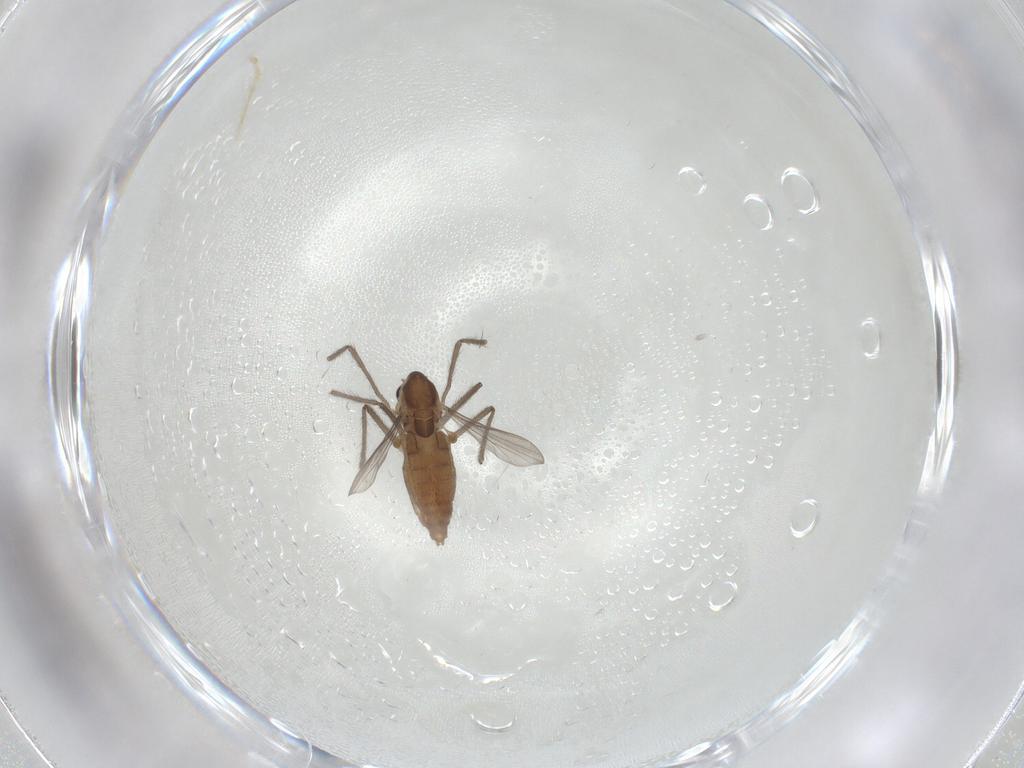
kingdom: Animalia
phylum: Arthropoda
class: Insecta
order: Diptera
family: Chironomidae
